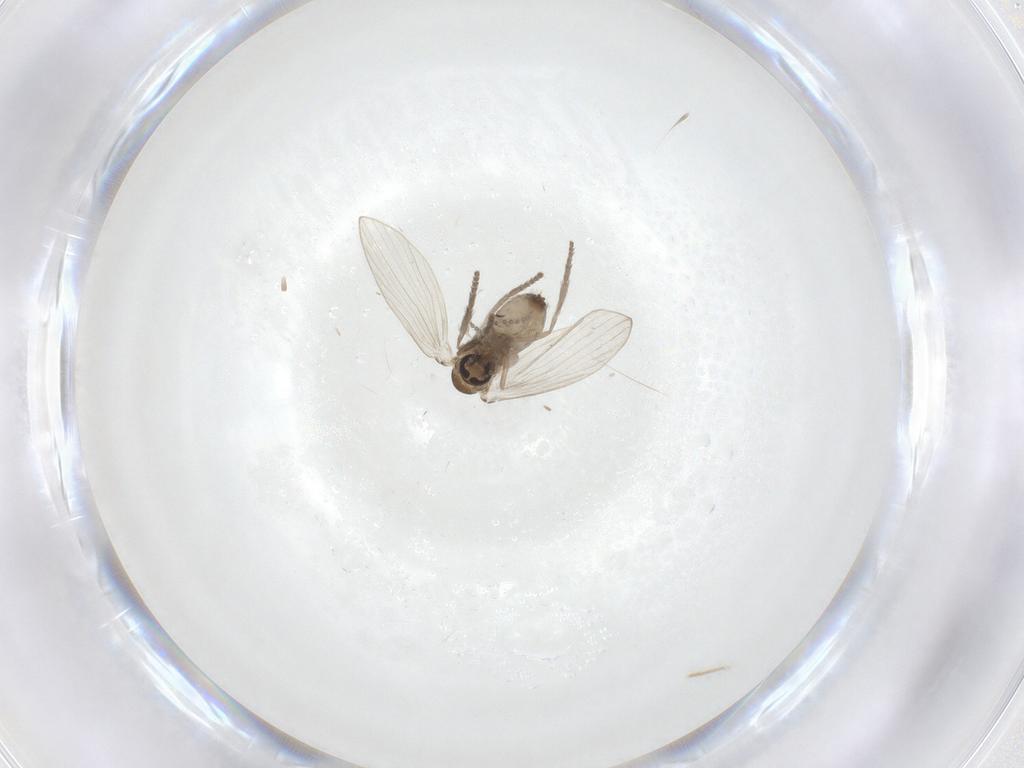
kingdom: Animalia
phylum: Arthropoda
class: Insecta
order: Diptera
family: Psychodidae
